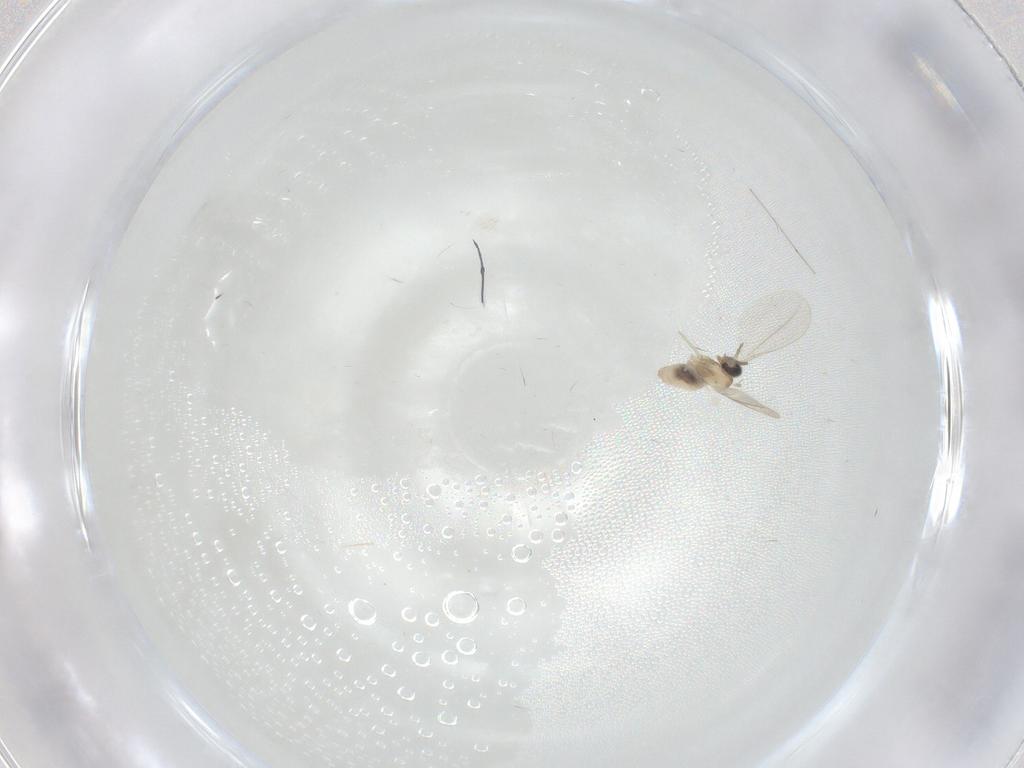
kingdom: Animalia
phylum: Arthropoda
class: Insecta
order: Diptera
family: Cecidomyiidae
